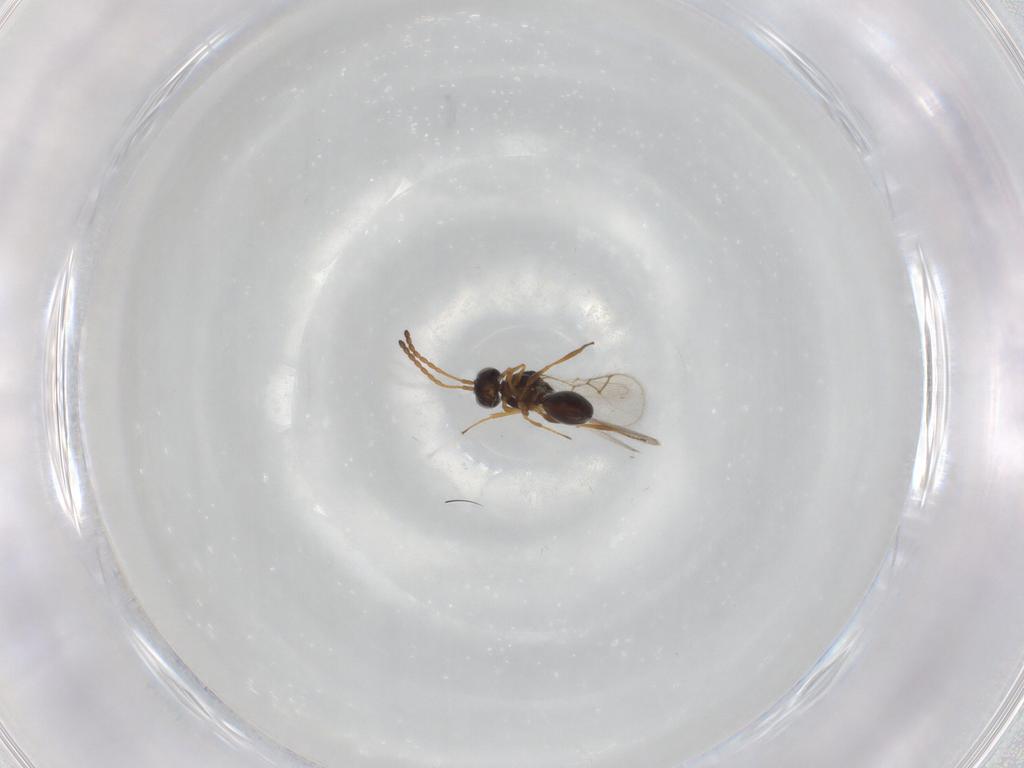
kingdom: Animalia
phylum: Arthropoda
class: Insecta
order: Hymenoptera
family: Figitidae
